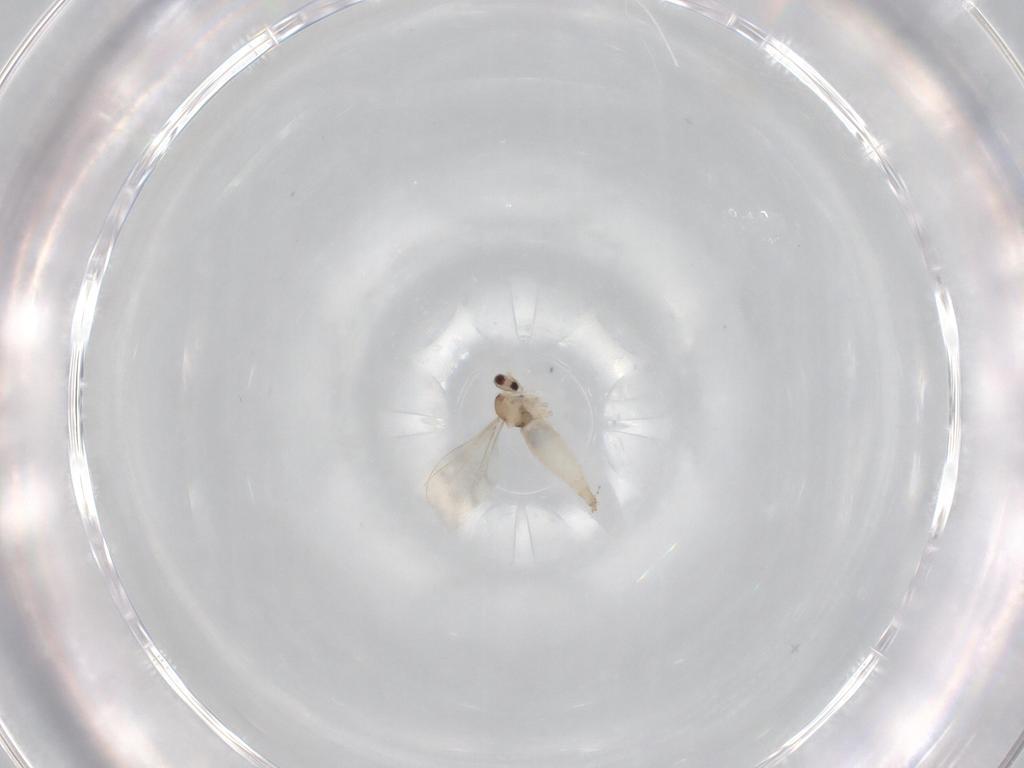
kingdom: Animalia
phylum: Arthropoda
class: Insecta
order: Diptera
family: Cecidomyiidae
